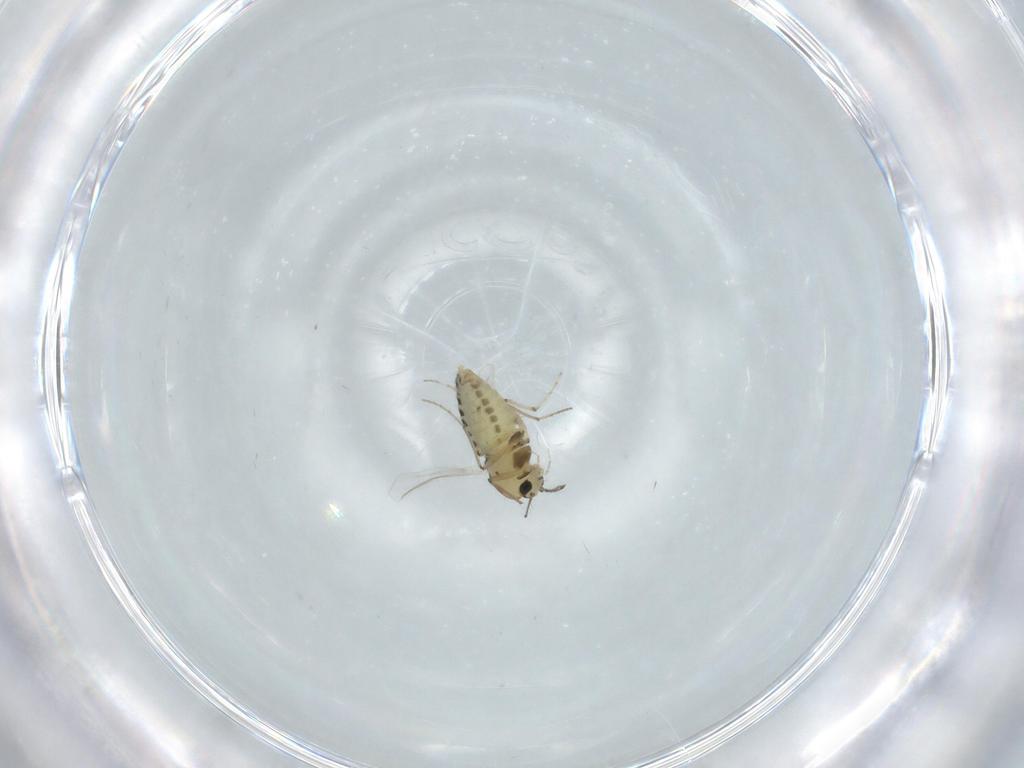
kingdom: Animalia
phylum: Arthropoda
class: Insecta
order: Diptera
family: Chironomidae
